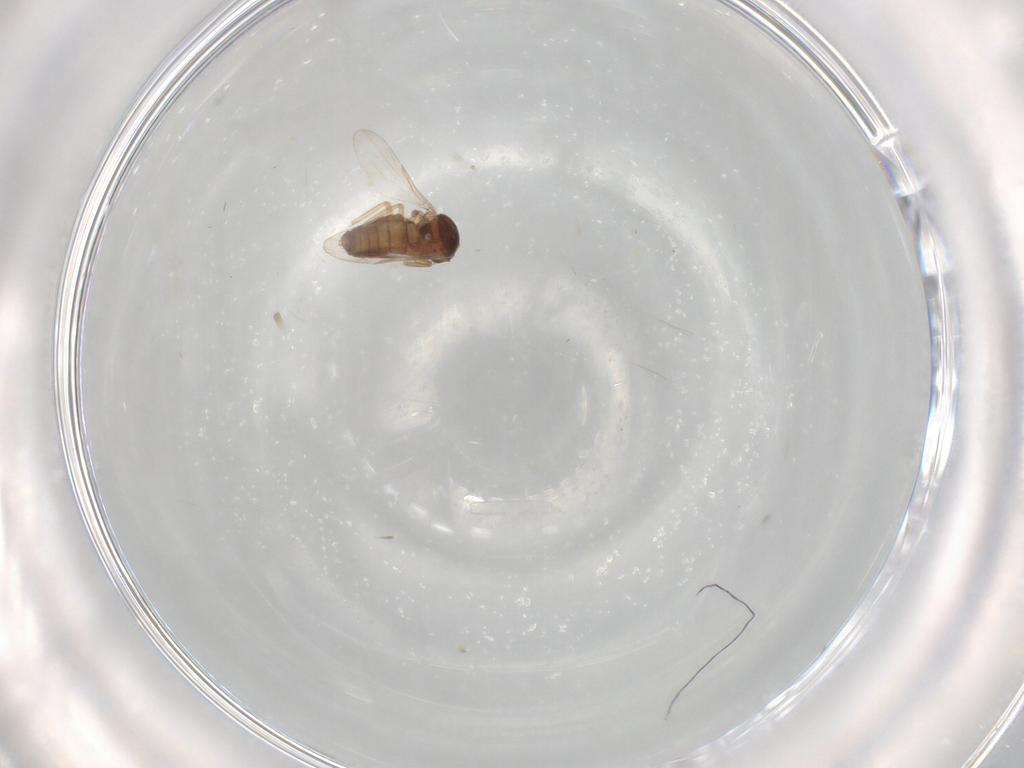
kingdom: Animalia
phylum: Arthropoda
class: Insecta
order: Diptera
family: Ceratopogonidae
